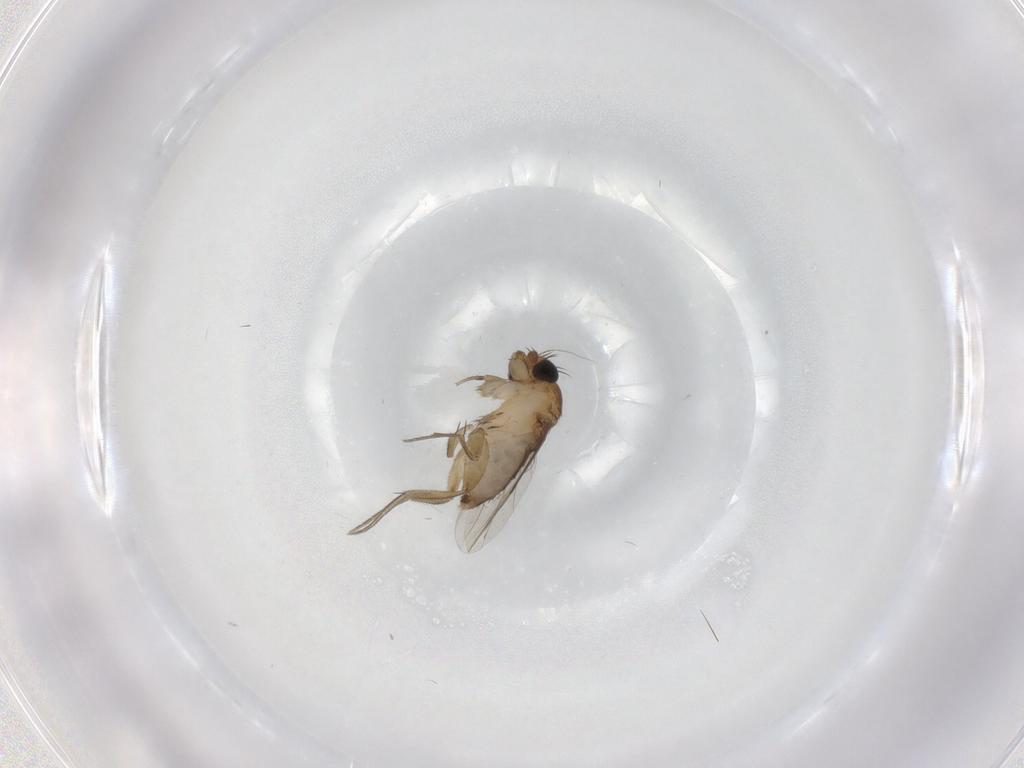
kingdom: Animalia
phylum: Arthropoda
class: Insecta
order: Diptera
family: Phoridae
